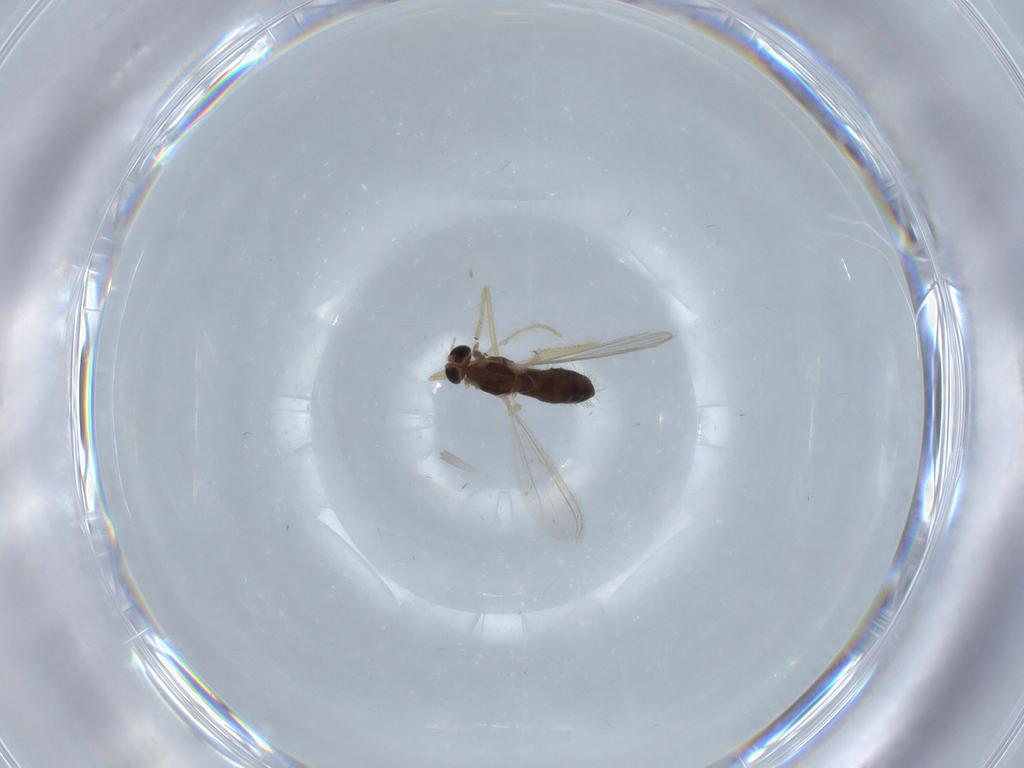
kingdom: Animalia
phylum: Arthropoda
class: Insecta
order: Diptera
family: Chironomidae
